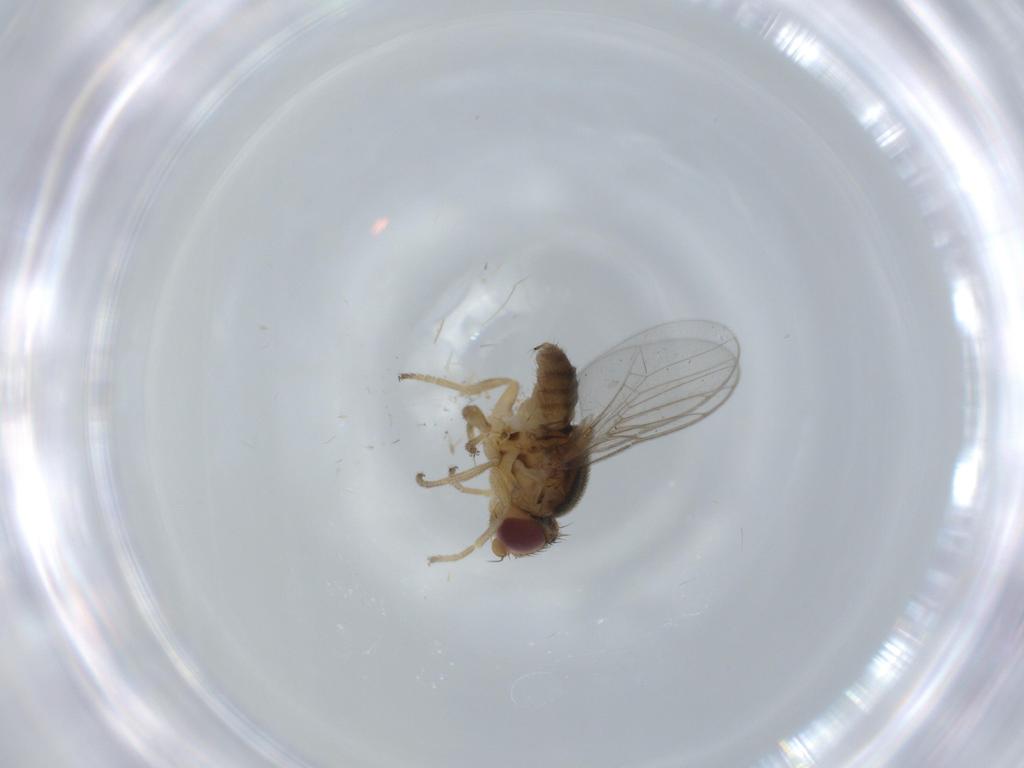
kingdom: Animalia
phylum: Arthropoda
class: Insecta
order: Diptera
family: Chloropidae
